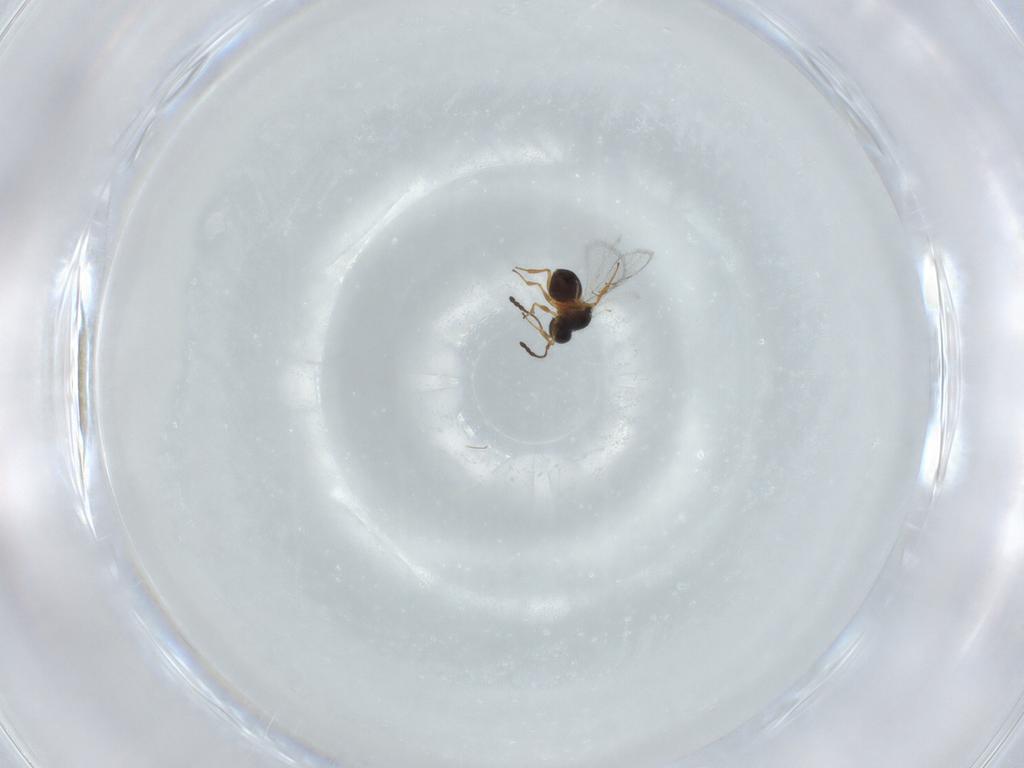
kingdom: Animalia
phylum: Arthropoda
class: Insecta
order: Hymenoptera
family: Figitidae
